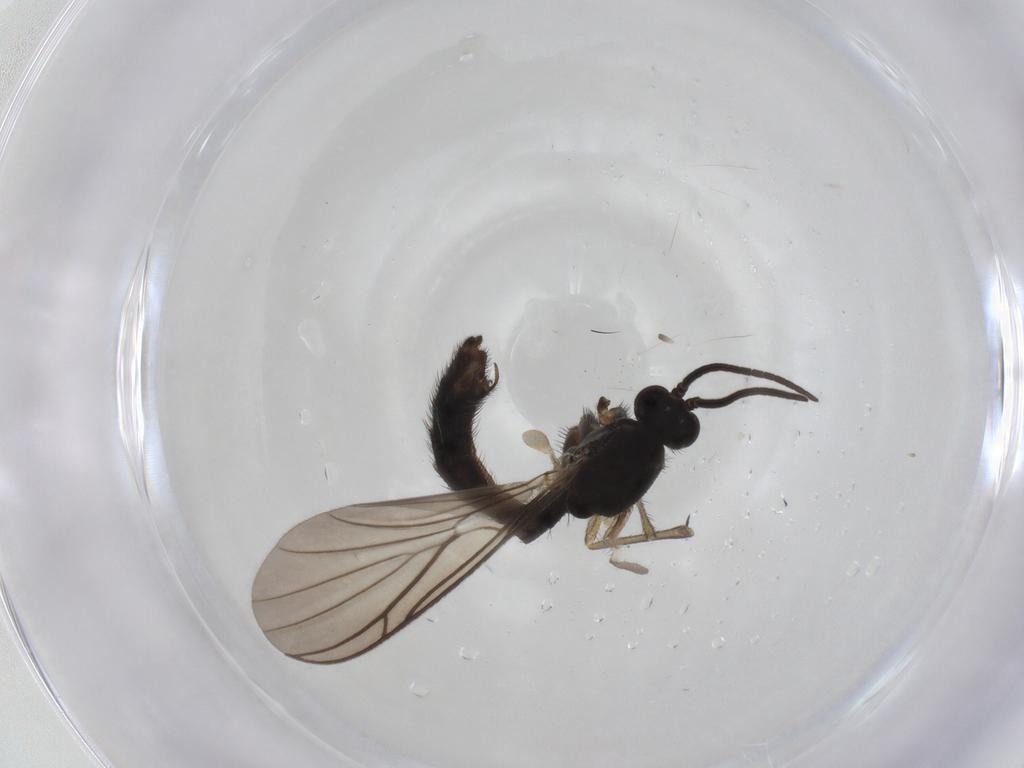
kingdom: Animalia
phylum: Arthropoda
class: Insecta
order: Diptera
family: Keroplatidae
